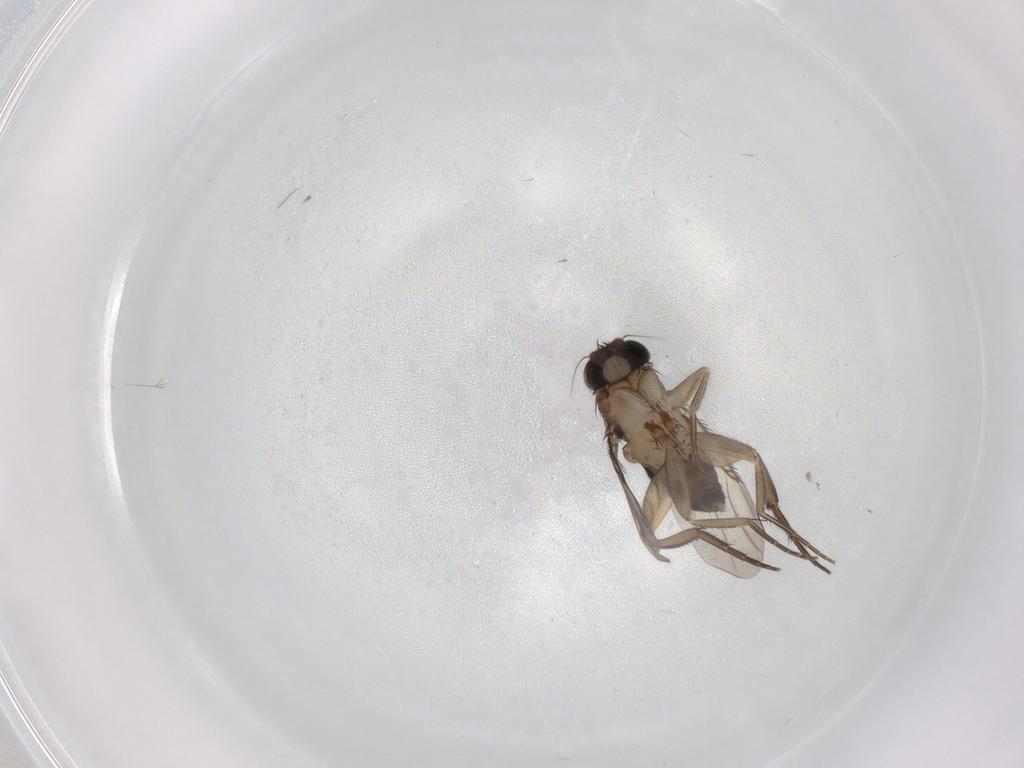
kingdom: Animalia
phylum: Arthropoda
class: Insecta
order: Diptera
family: Phoridae
